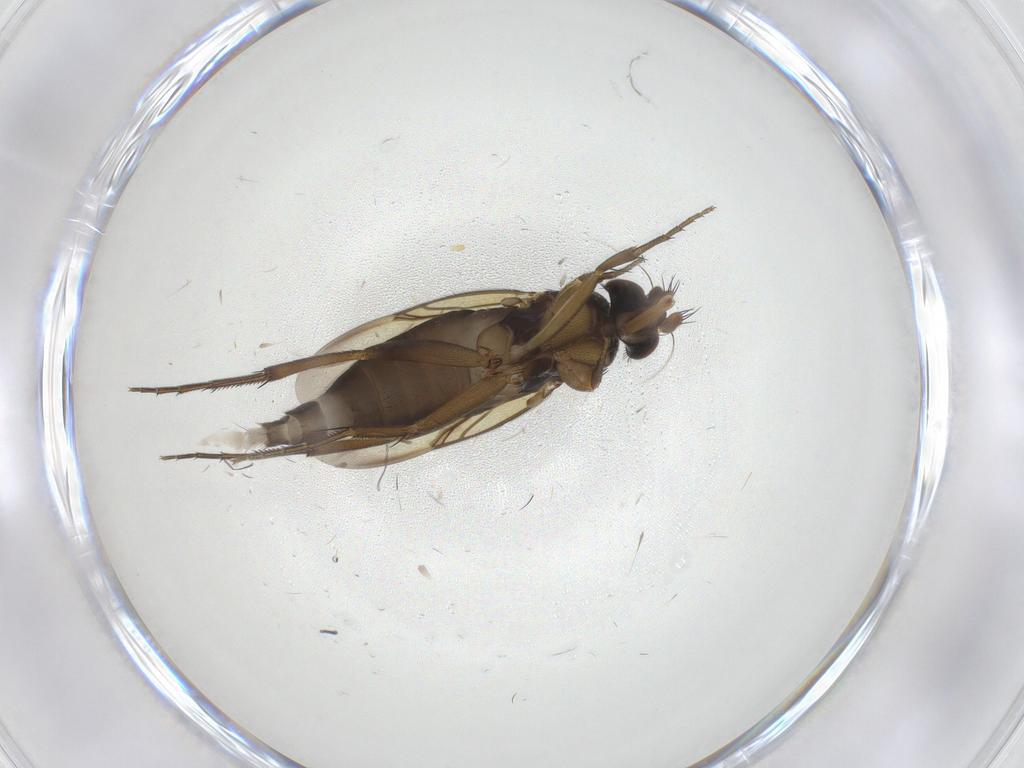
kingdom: Animalia
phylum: Arthropoda
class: Insecta
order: Diptera
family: Phoridae
